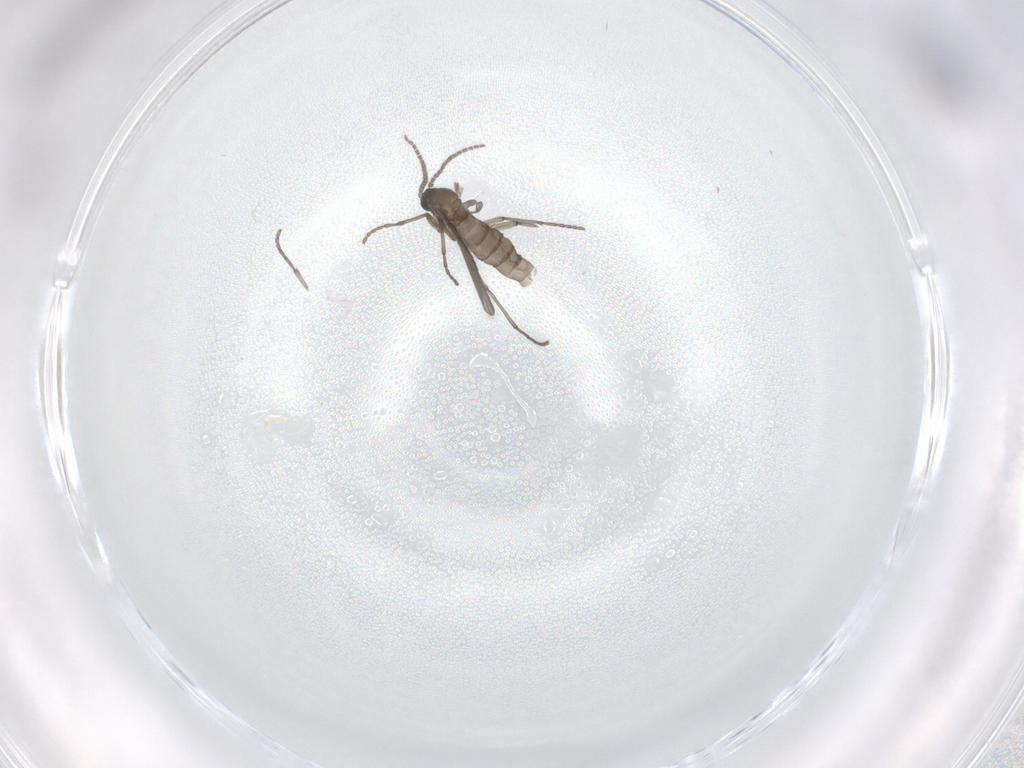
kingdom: Animalia
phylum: Arthropoda
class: Insecta
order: Diptera
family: Sciaridae
